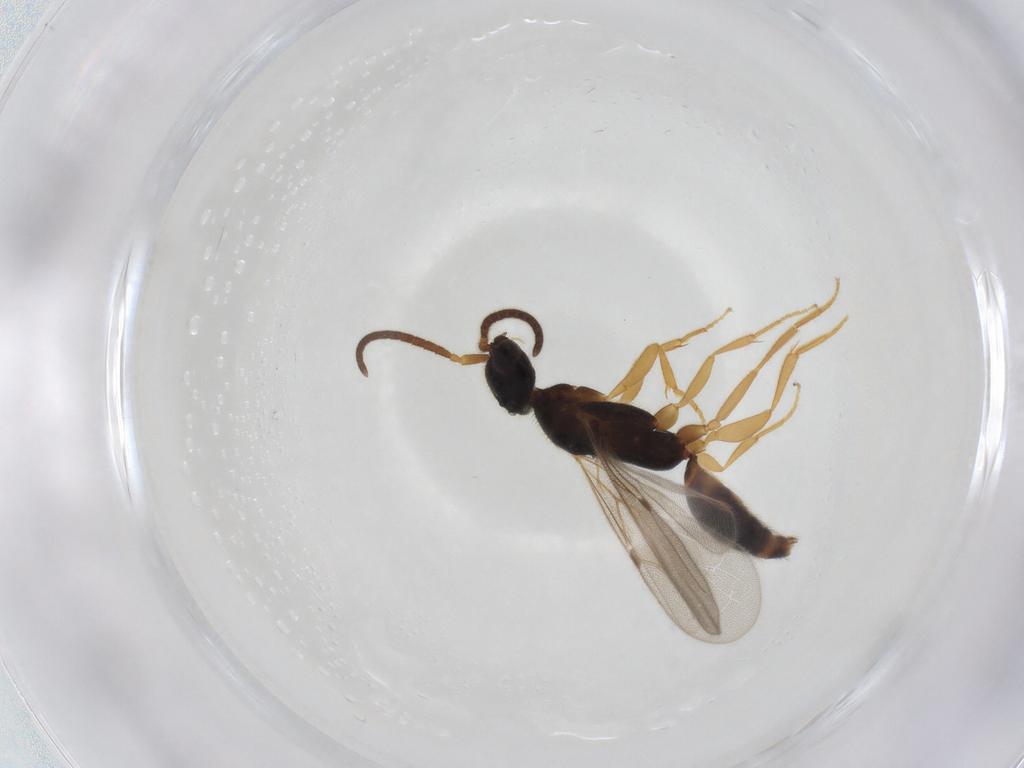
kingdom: Animalia
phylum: Arthropoda
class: Insecta
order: Hymenoptera
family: Bethylidae
